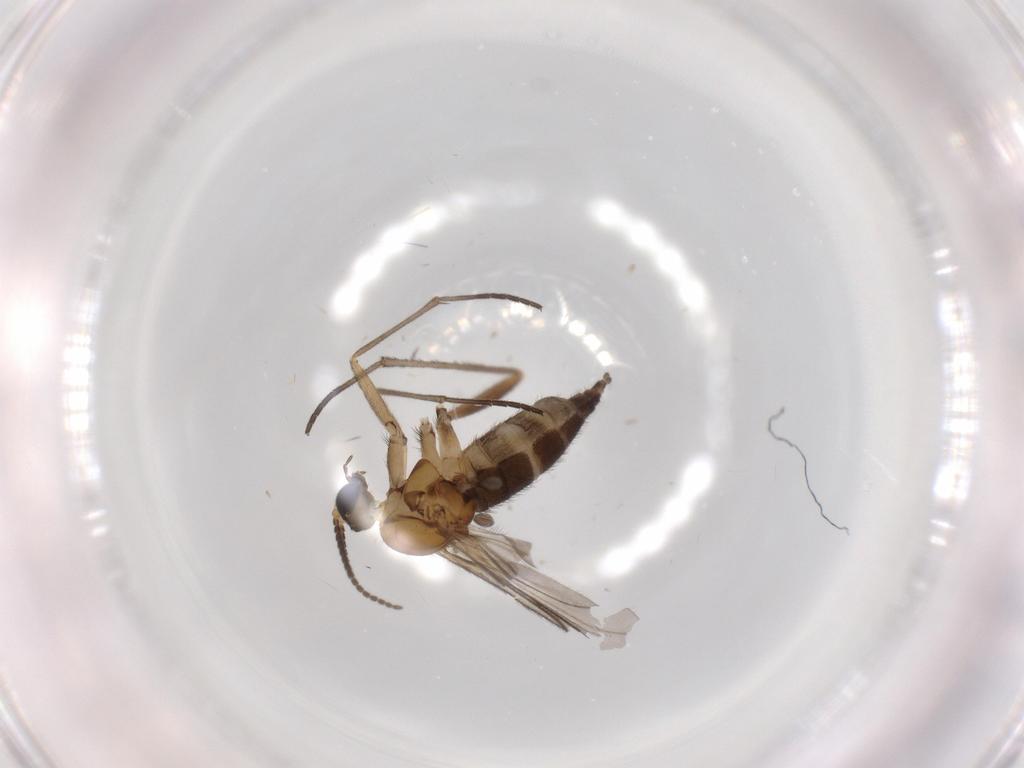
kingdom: Animalia
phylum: Arthropoda
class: Insecta
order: Diptera
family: Sciaridae
